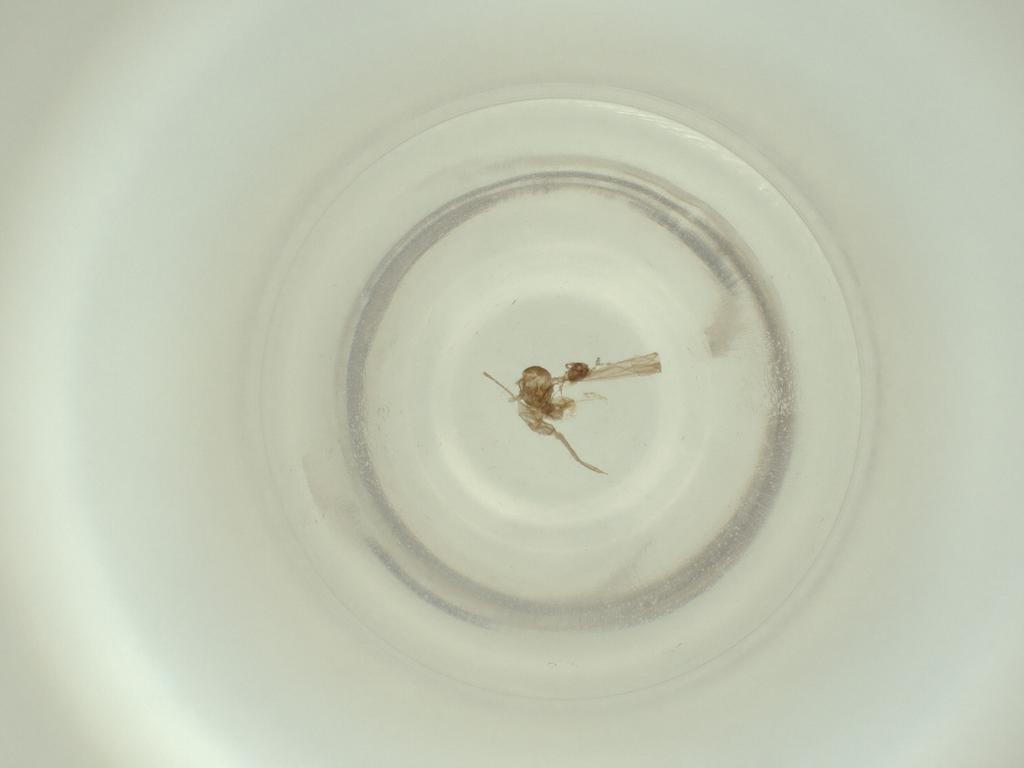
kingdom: Animalia
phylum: Arthropoda
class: Insecta
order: Diptera
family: Cecidomyiidae
